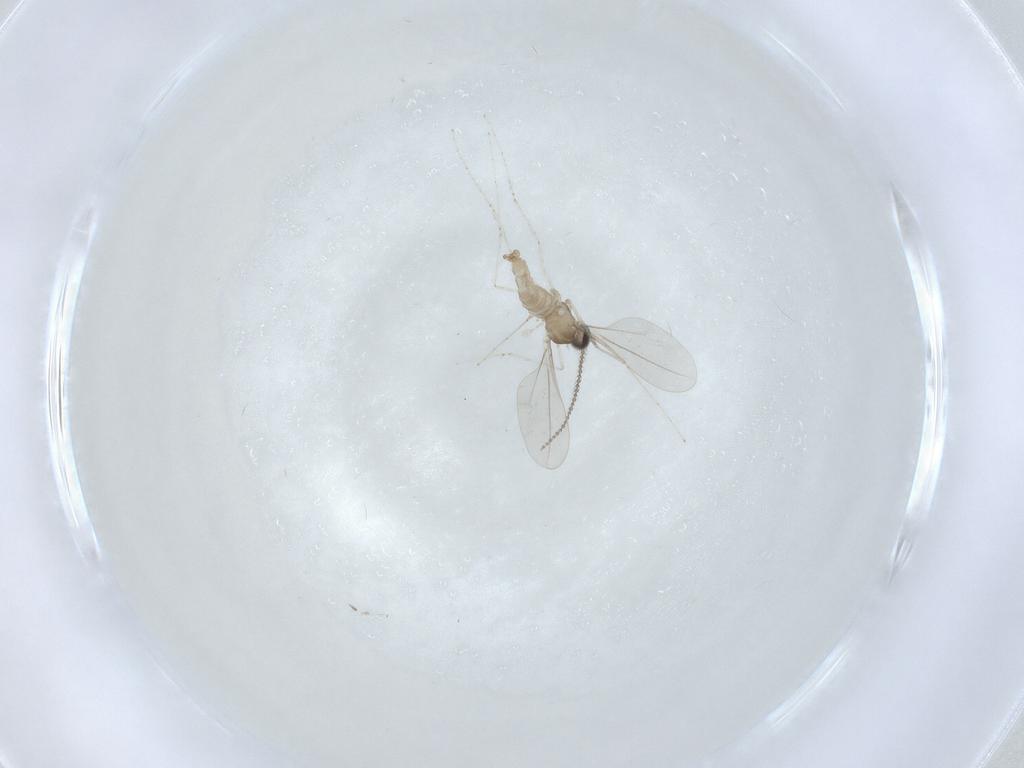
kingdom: Animalia
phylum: Arthropoda
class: Insecta
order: Diptera
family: Cecidomyiidae
